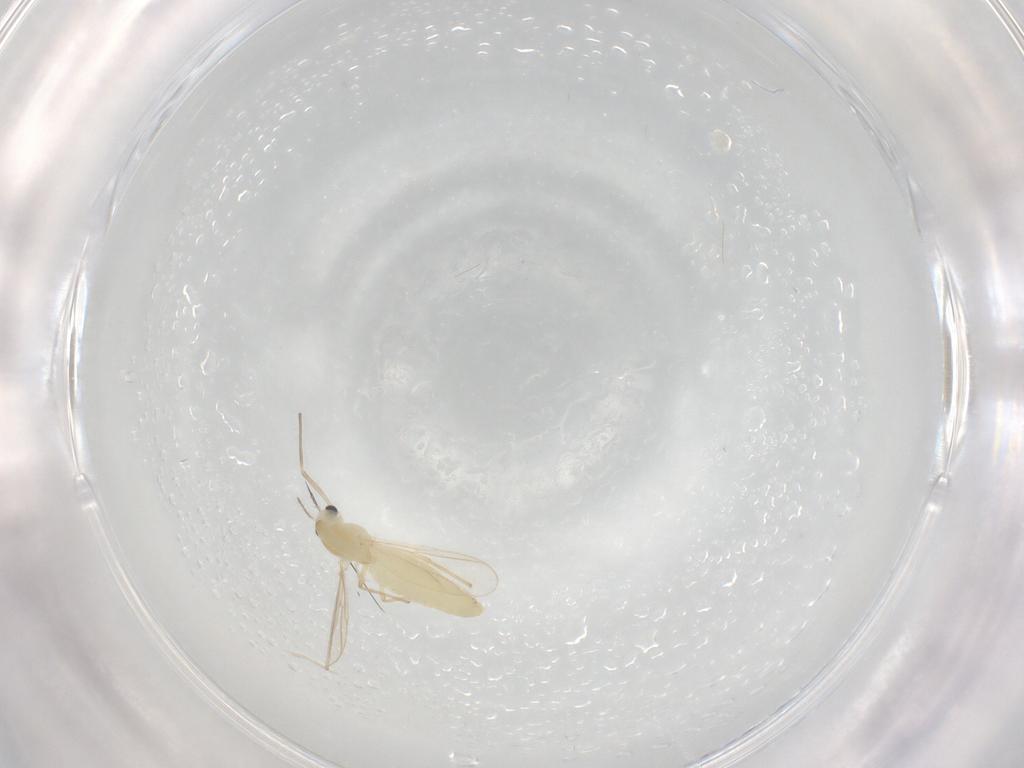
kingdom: Animalia
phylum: Arthropoda
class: Insecta
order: Diptera
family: Chironomidae
